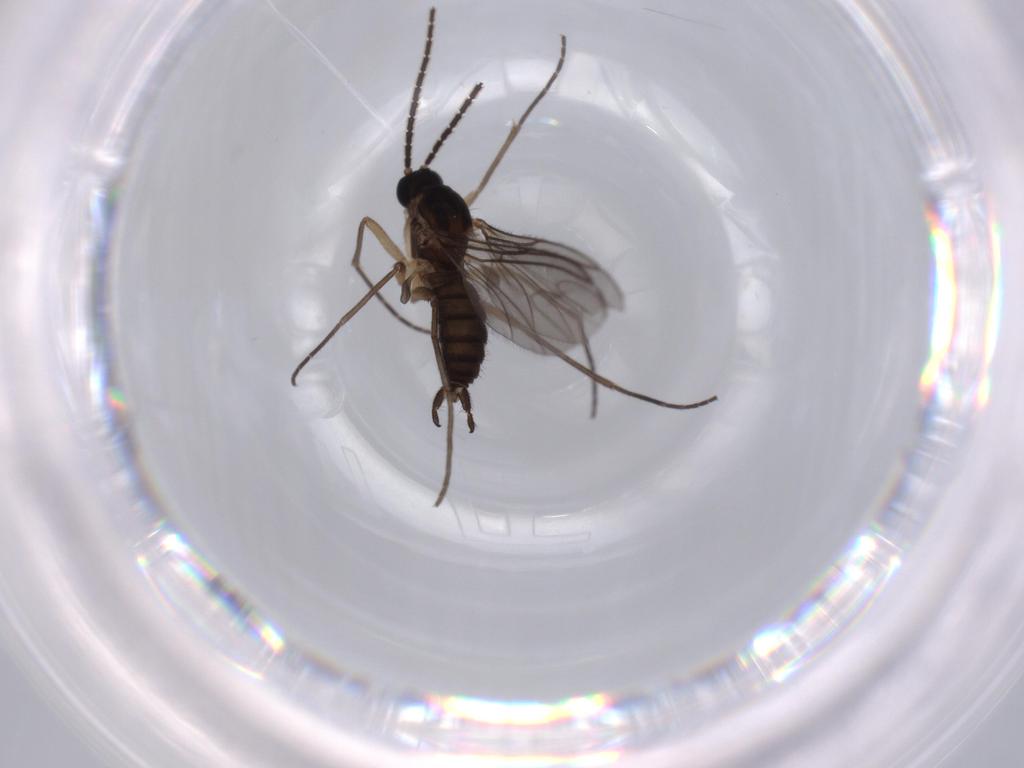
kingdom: Animalia
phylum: Arthropoda
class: Insecta
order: Diptera
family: Sciaridae
